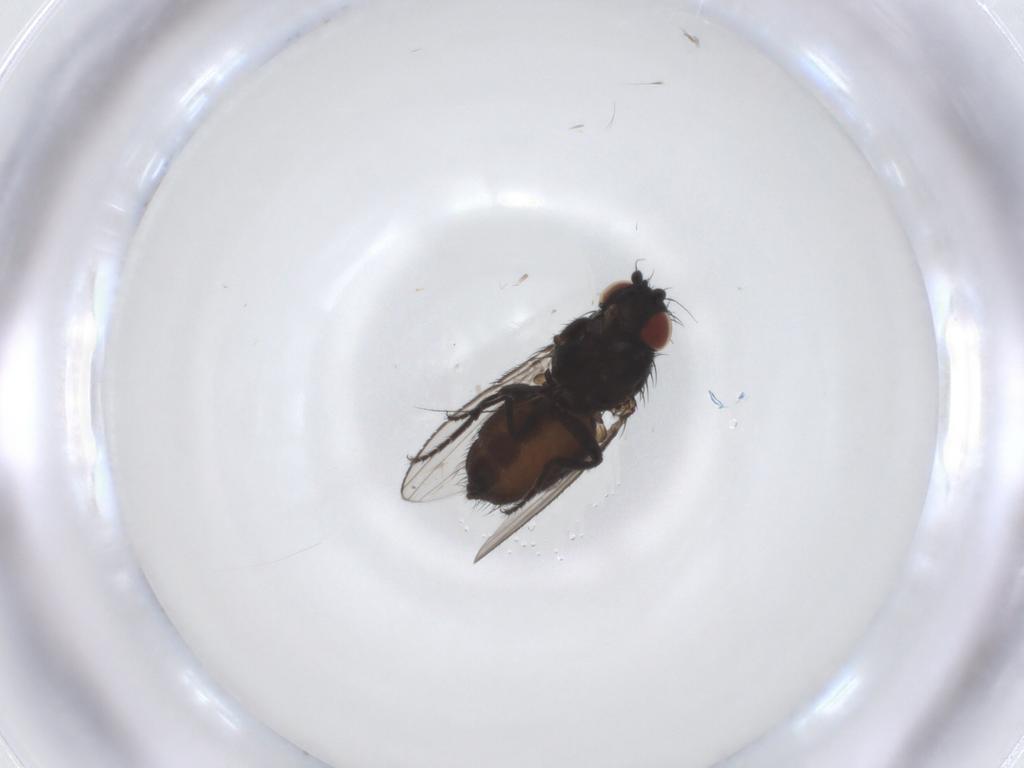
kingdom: Animalia
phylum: Arthropoda
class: Insecta
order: Diptera
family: Milichiidae
